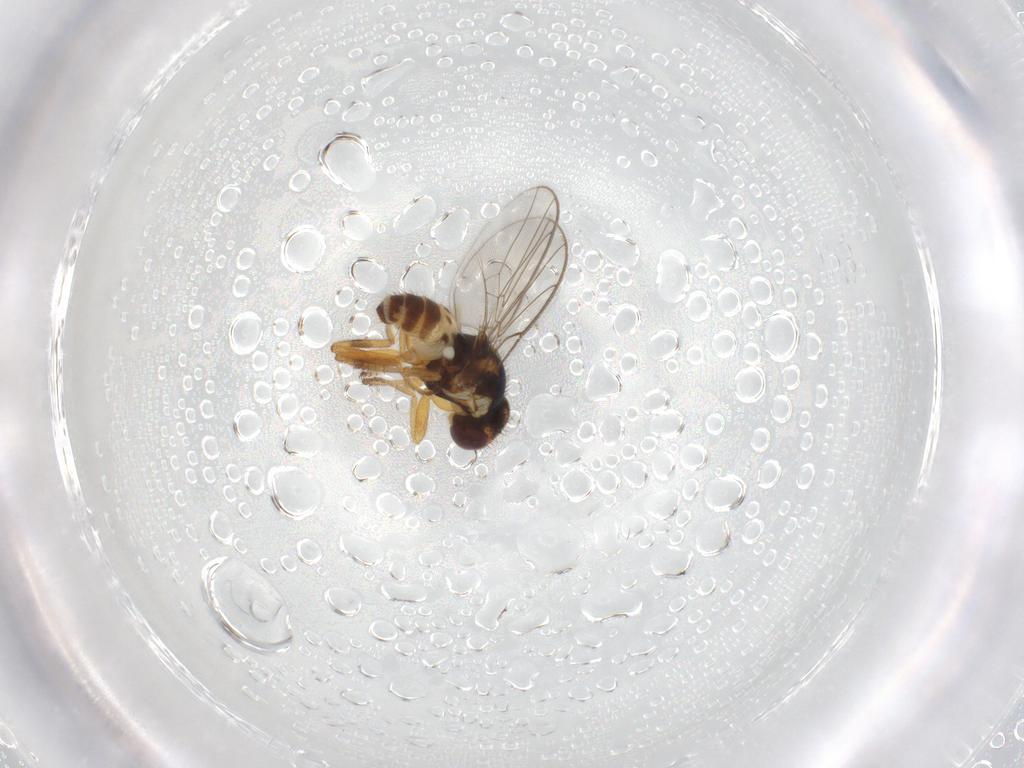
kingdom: Animalia
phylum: Arthropoda
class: Insecta
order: Diptera
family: Chloropidae
